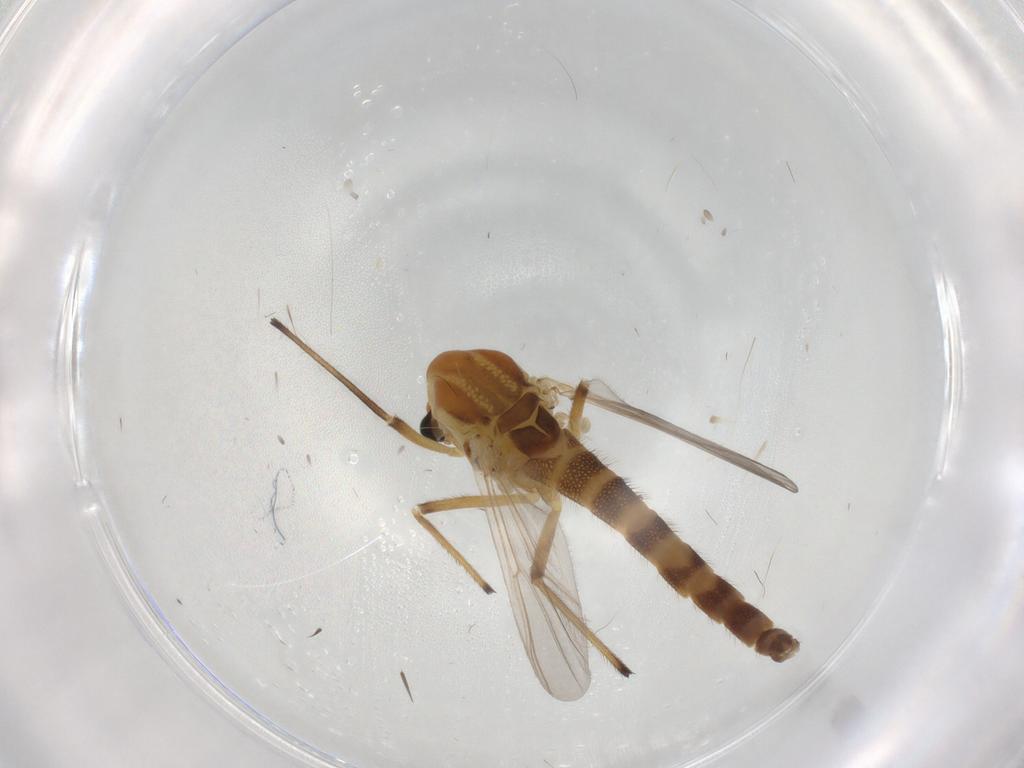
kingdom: Animalia
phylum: Arthropoda
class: Insecta
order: Diptera
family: Chironomidae
